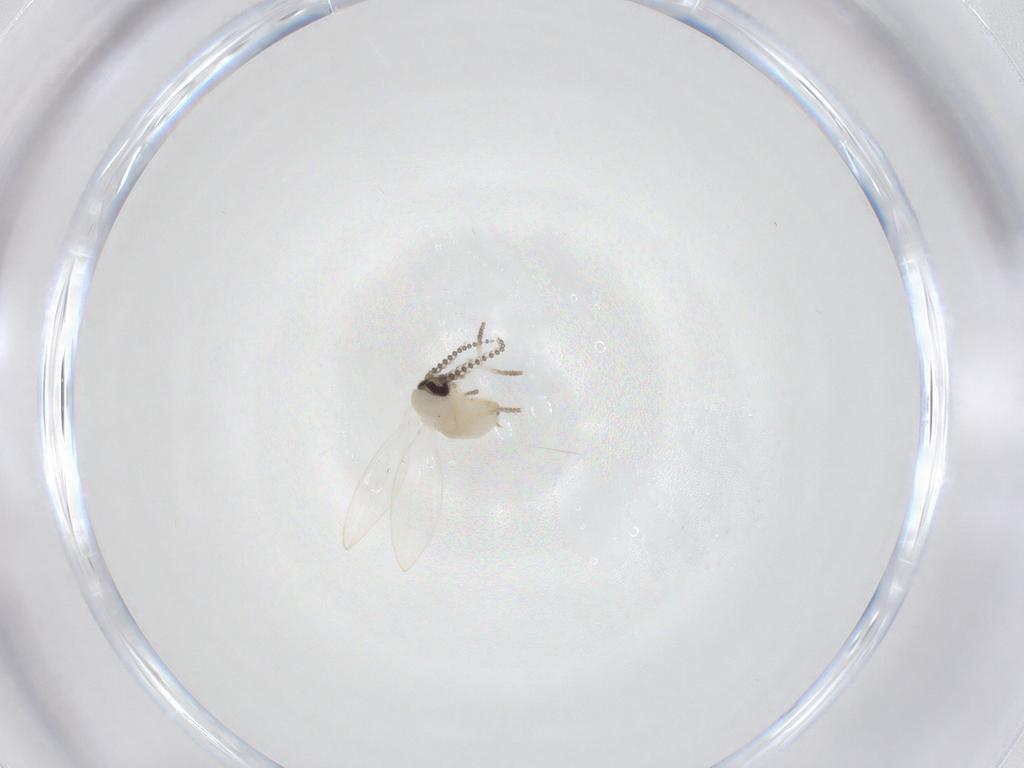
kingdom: Animalia
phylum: Arthropoda
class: Insecta
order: Diptera
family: Psychodidae
